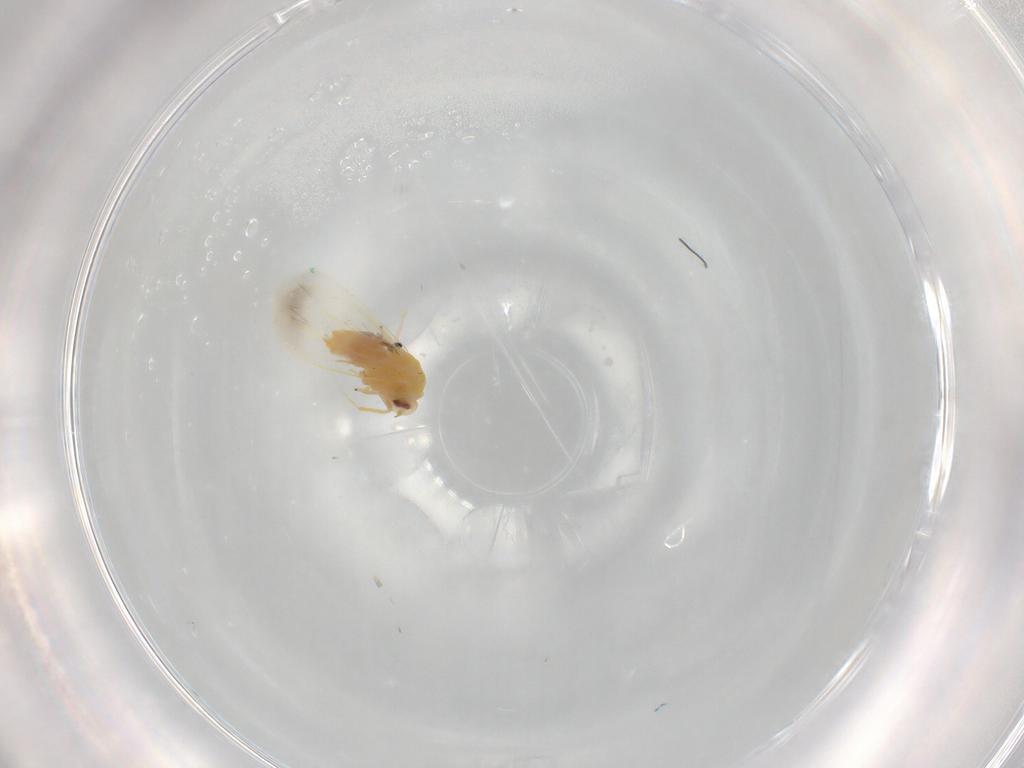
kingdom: Animalia
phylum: Arthropoda
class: Insecta
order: Hemiptera
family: Aleyrodidae
